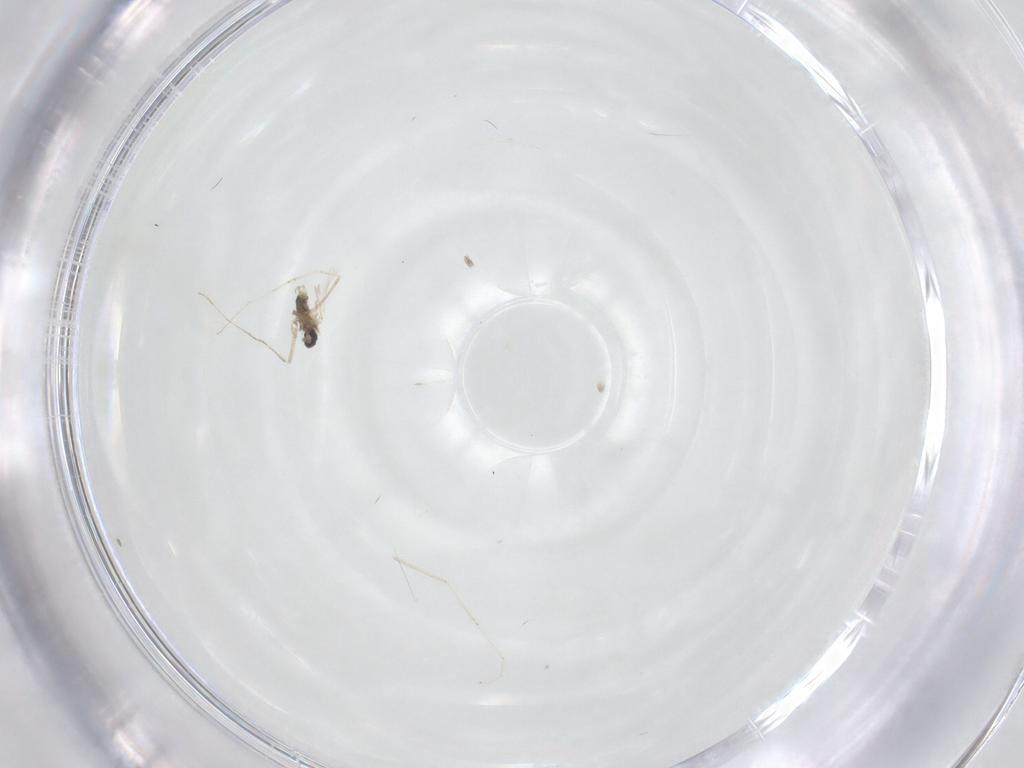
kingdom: Animalia
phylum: Arthropoda
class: Insecta
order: Diptera
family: Cecidomyiidae
